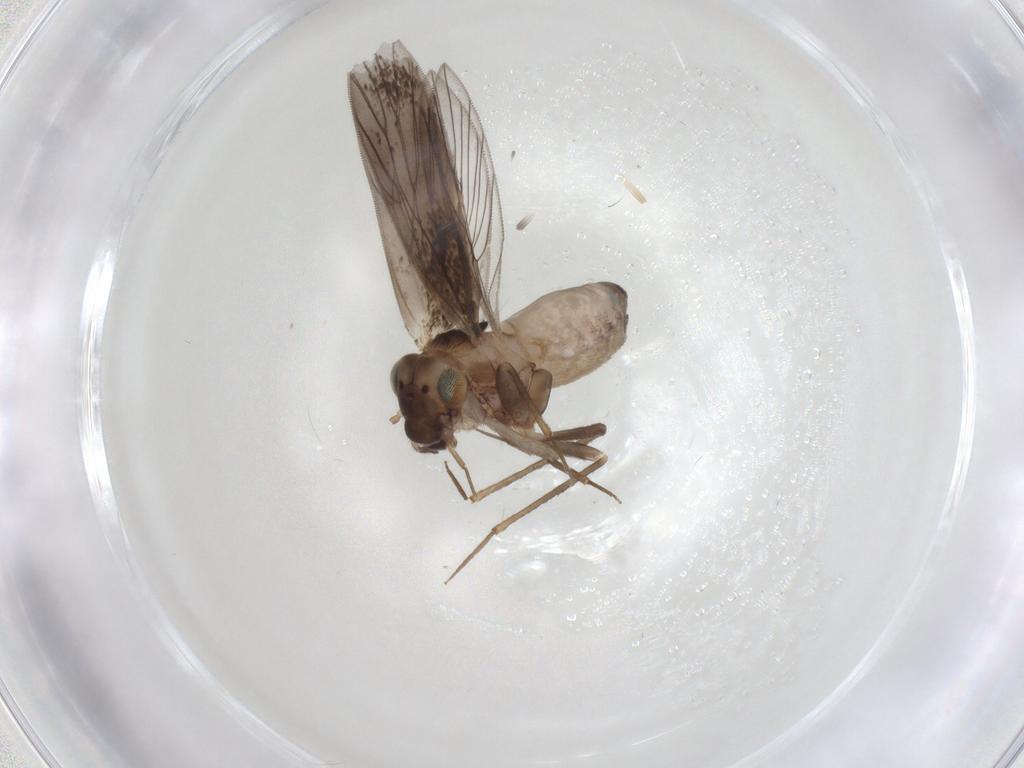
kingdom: Animalia
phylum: Arthropoda
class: Insecta
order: Psocodea
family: Lepidopsocidae
